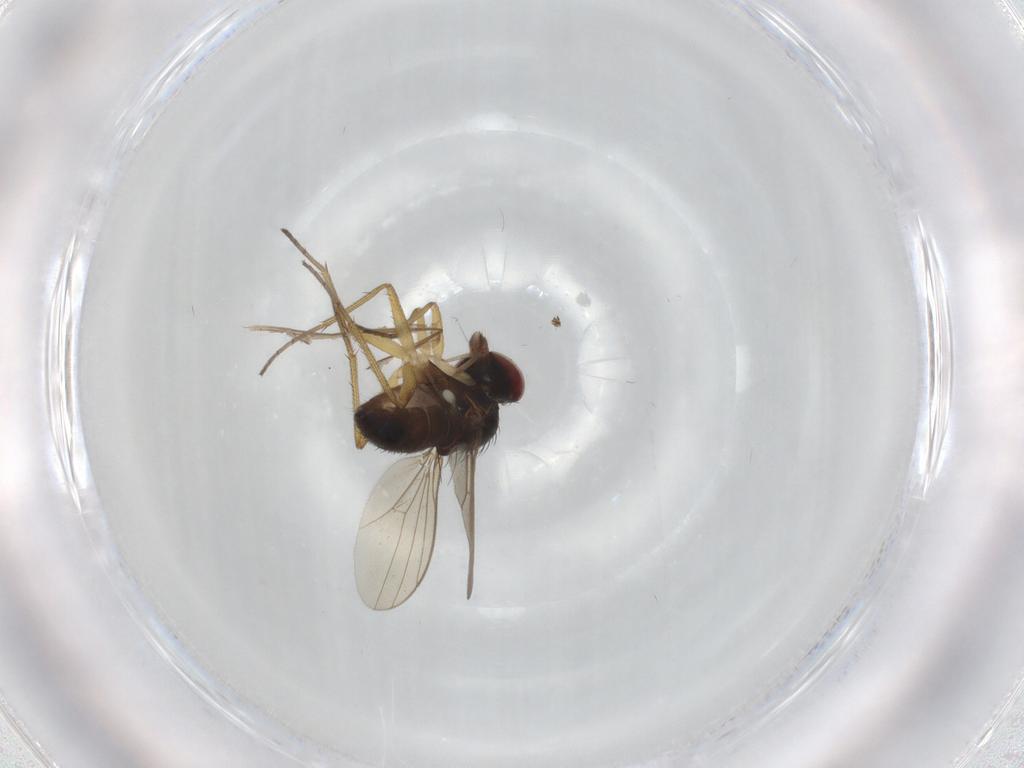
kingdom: Animalia
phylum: Arthropoda
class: Insecta
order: Diptera
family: Dolichopodidae
